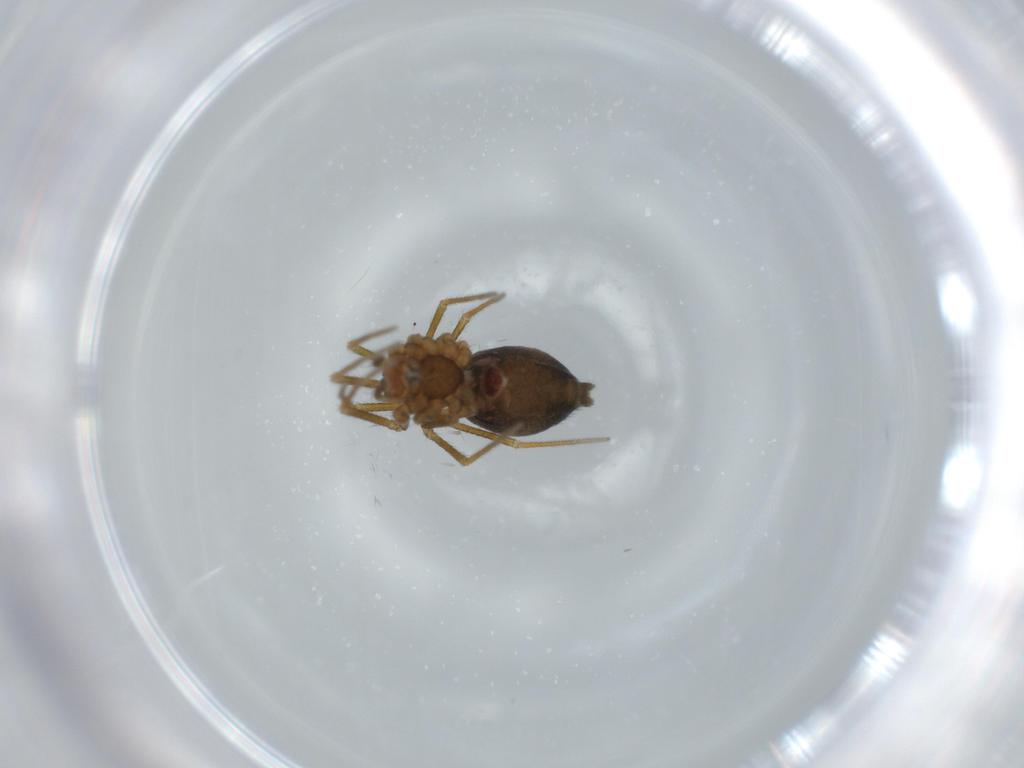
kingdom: Animalia
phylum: Arthropoda
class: Arachnida
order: Araneae
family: Linyphiidae
